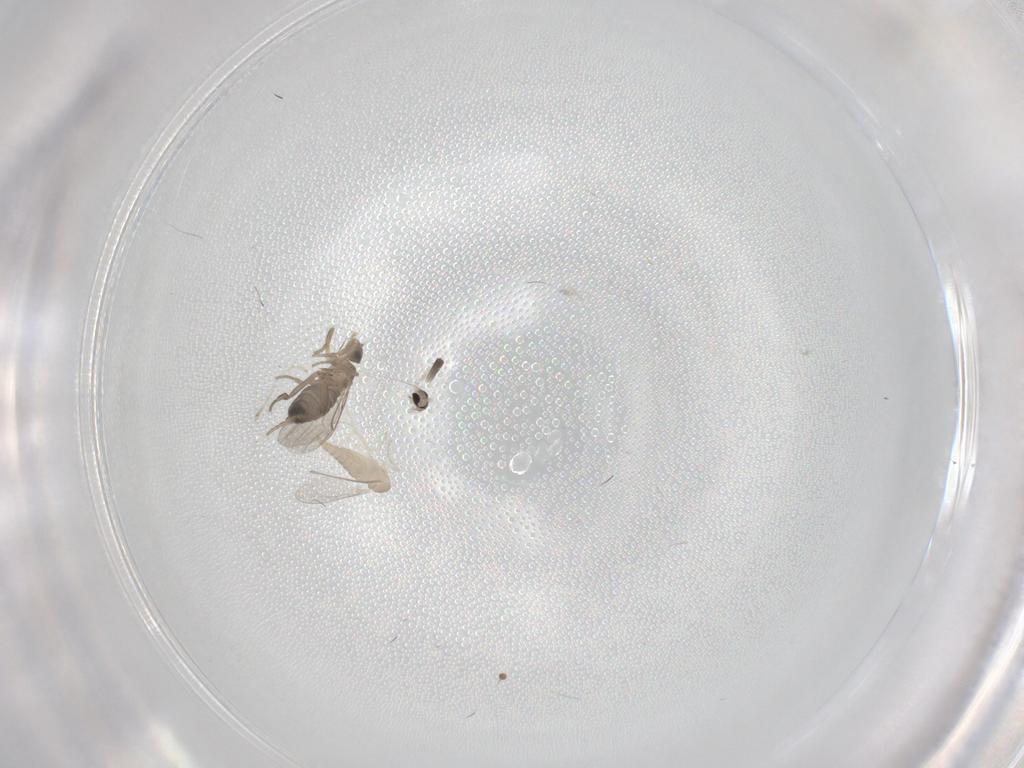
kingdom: Animalia
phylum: Arthropoda
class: Insecta
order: Diptera
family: Cecidomyiidae
